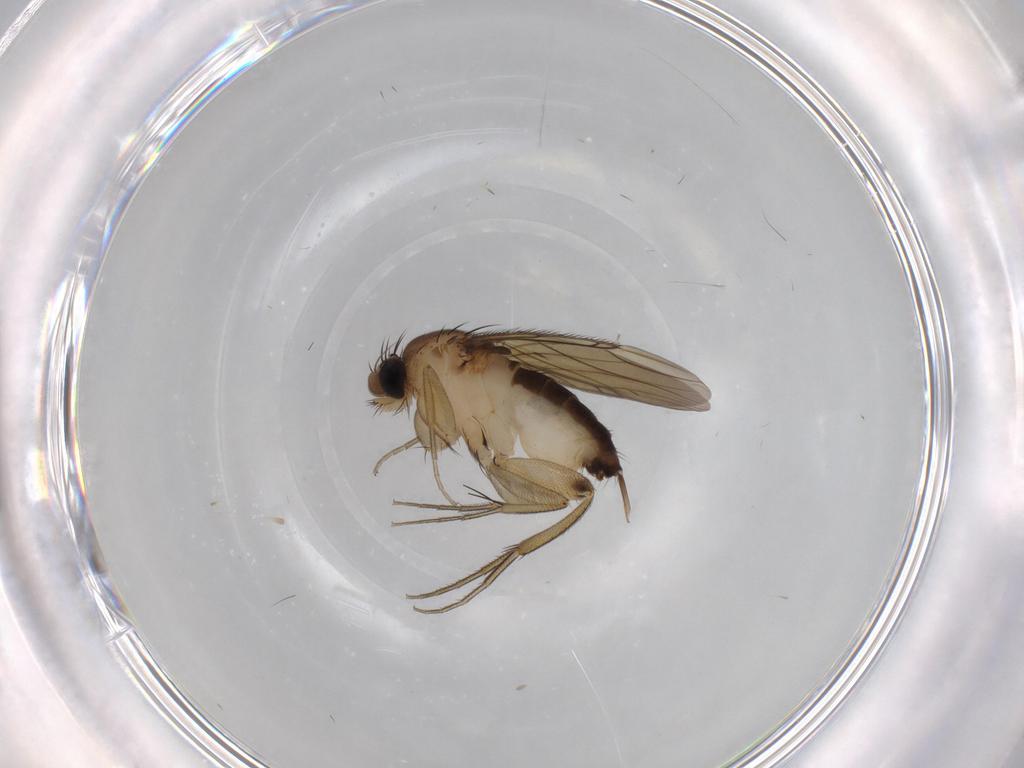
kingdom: Animalia
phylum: Arthropoda
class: Insecta
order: Diptera
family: Phoridae
